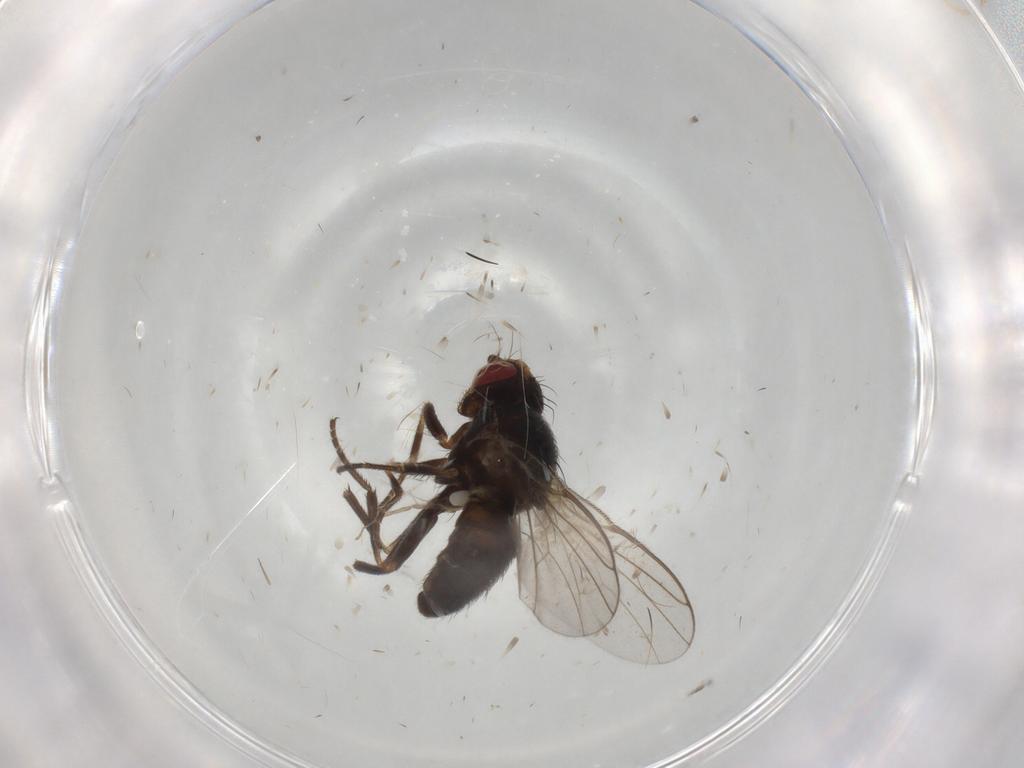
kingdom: Animalia
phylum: Arthropoda
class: Insecta
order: Diptera
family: Cecidomyiidae
